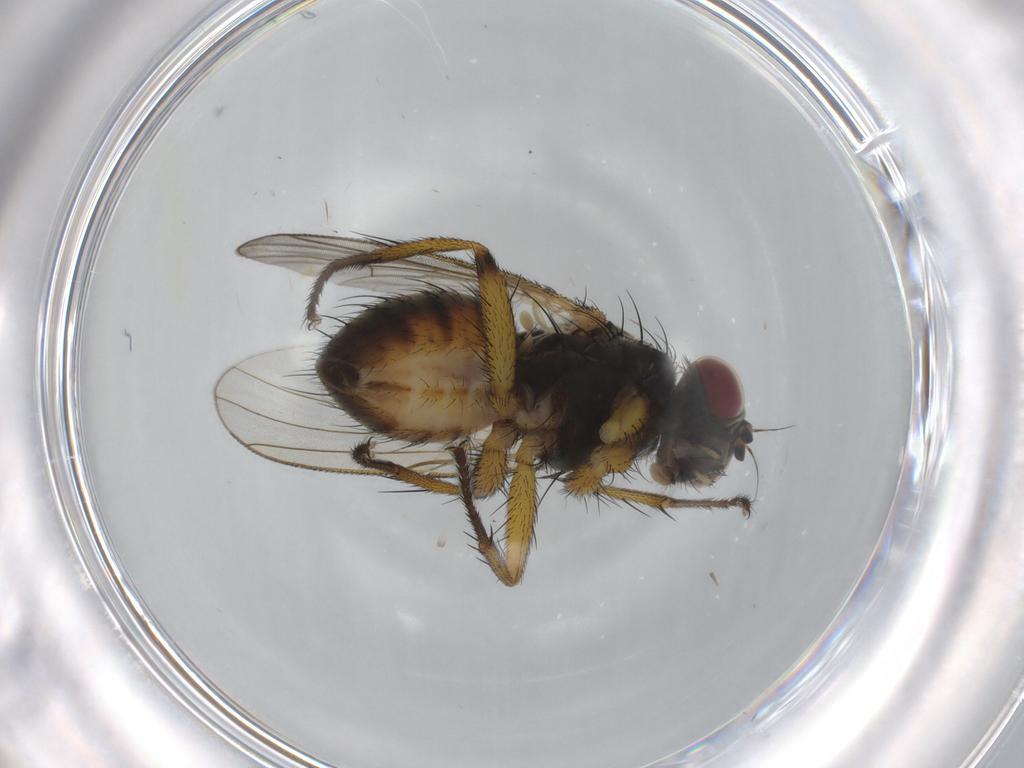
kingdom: Animalia
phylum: Arthropoda
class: Insecta
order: Diptera
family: Muscidae
